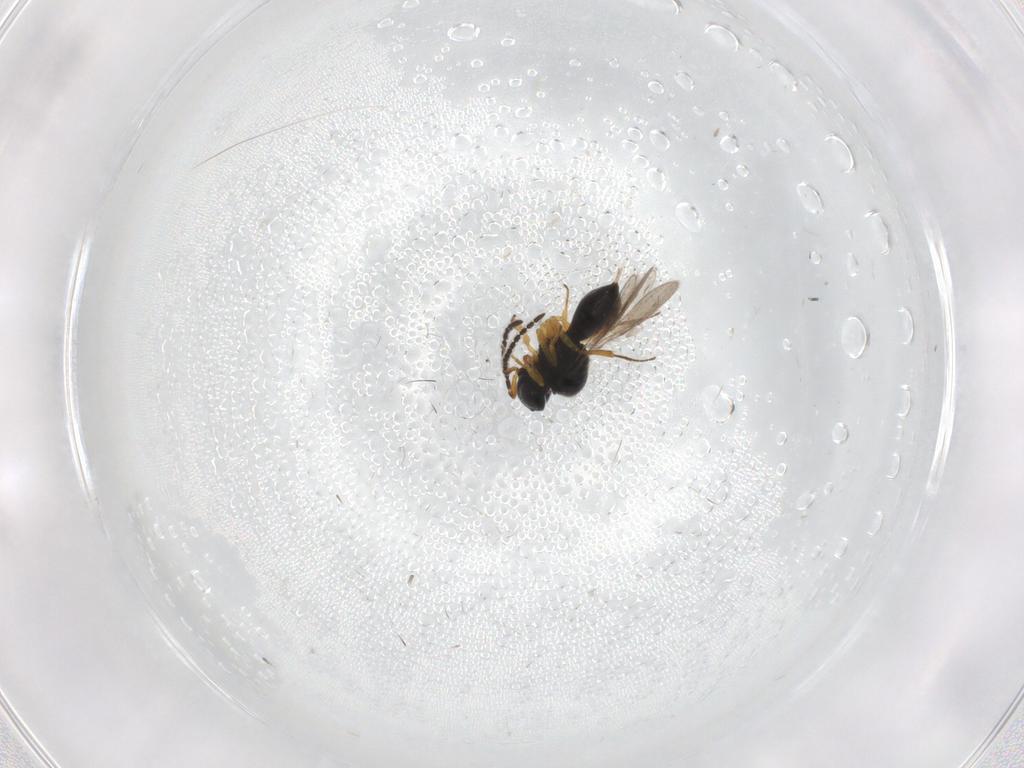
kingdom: Animalia
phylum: Arthropoda
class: Insecta
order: Hymenoptera
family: Scelionidae
